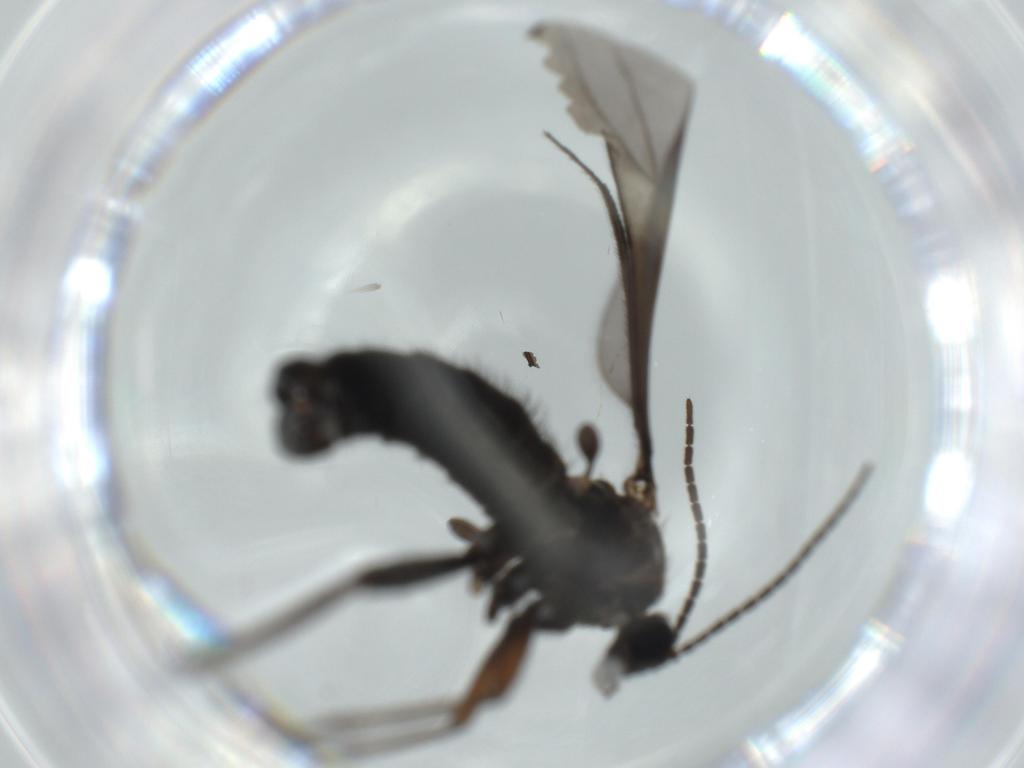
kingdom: Animalia
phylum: Arthropoda
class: Insecta
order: Diptera
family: Sciaridae
